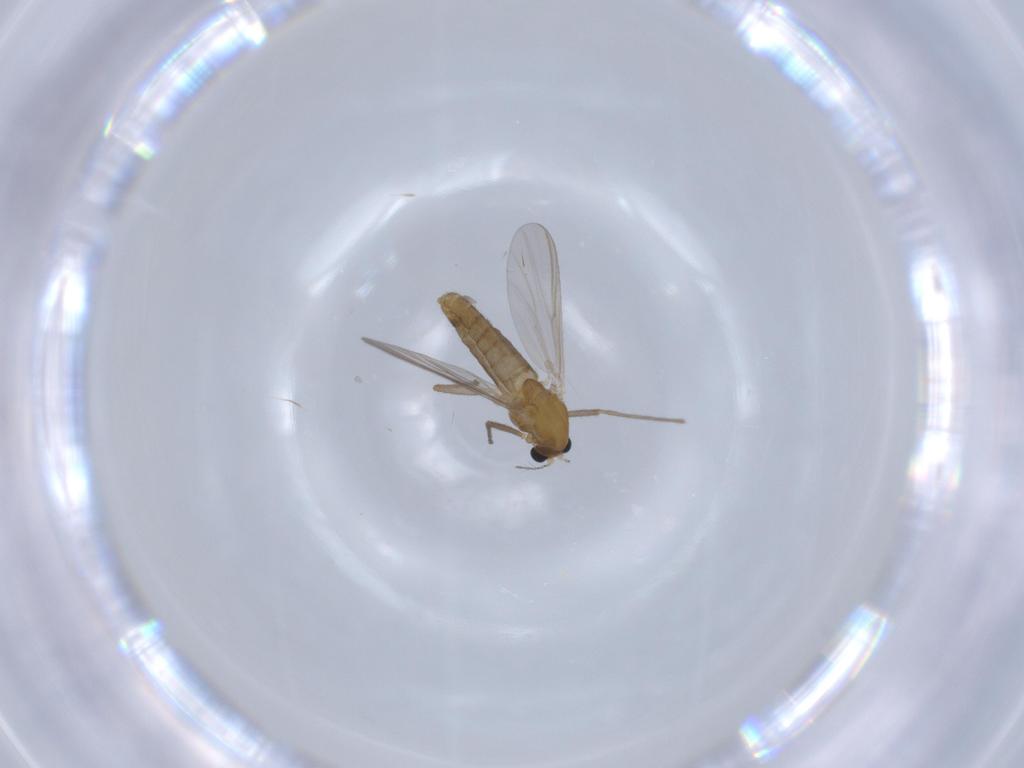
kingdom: Animalia
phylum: Arthropoda
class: Insecta
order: Diptera
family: Chironomidae
